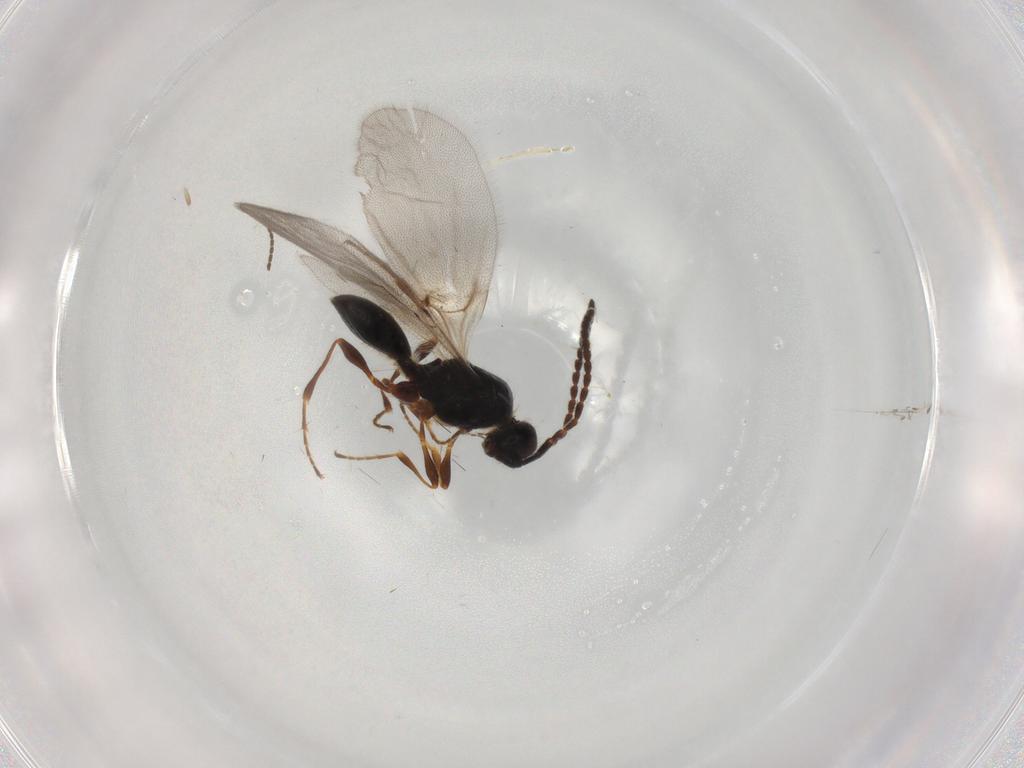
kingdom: Animalia
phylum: Arthropoda
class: Insecta
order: Hymenoptera
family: Diapriidae
